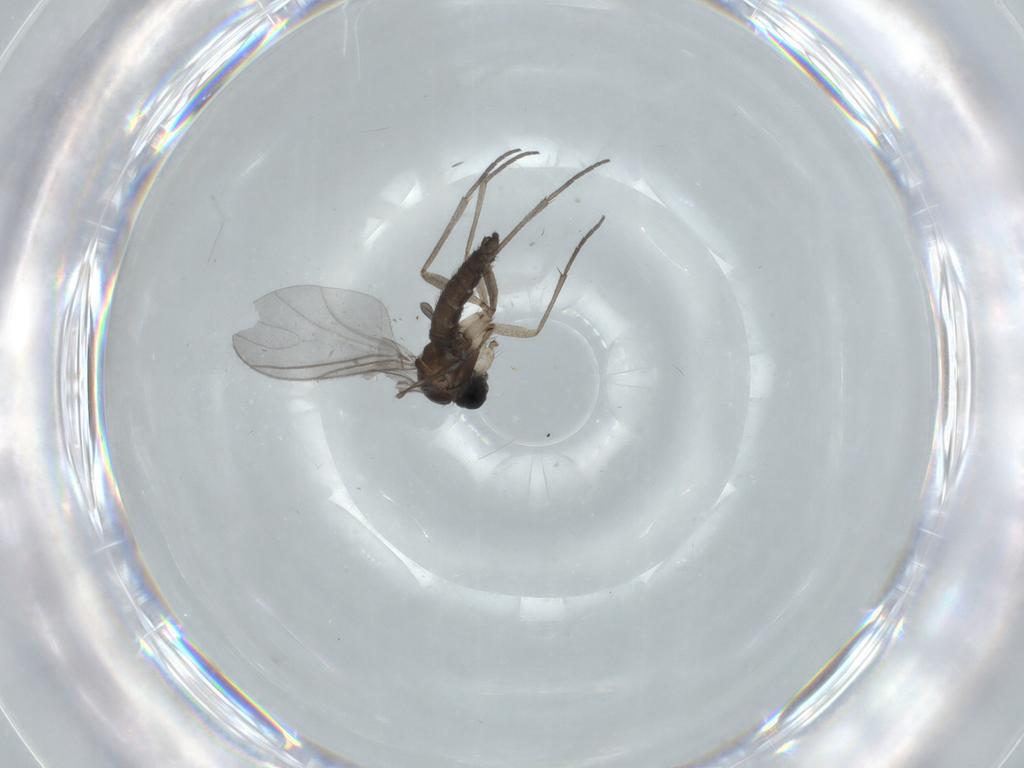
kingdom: Animalia
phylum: Arthropoda
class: Insecta
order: Diptera
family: Sciaridae
